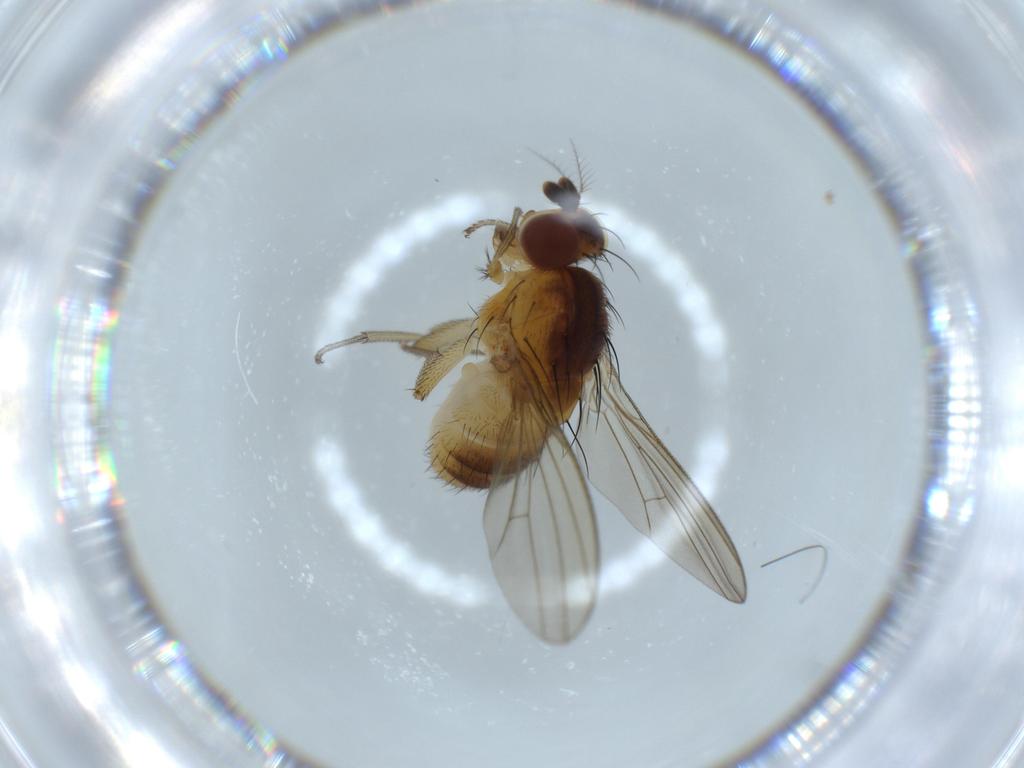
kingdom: Animalia
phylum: Arthropoda
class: Insecta
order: Diptera
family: Lauxaniidae
